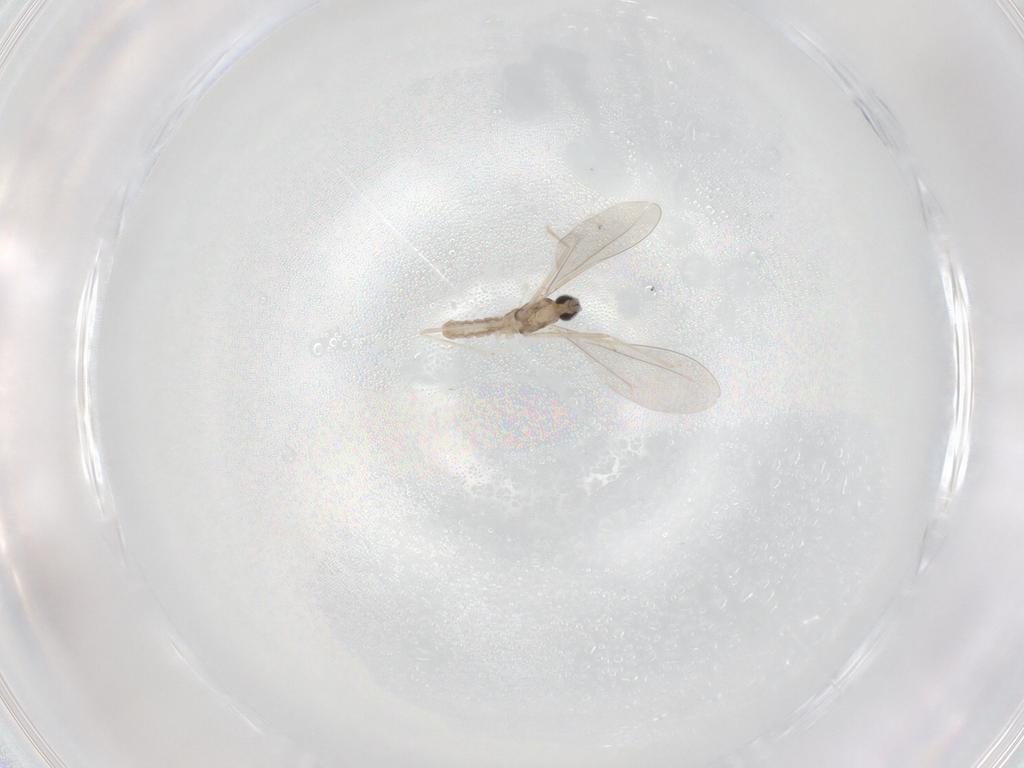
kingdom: Animalia
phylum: Arthropoda
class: Insecta
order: Diptera
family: Cecidomyiidae
